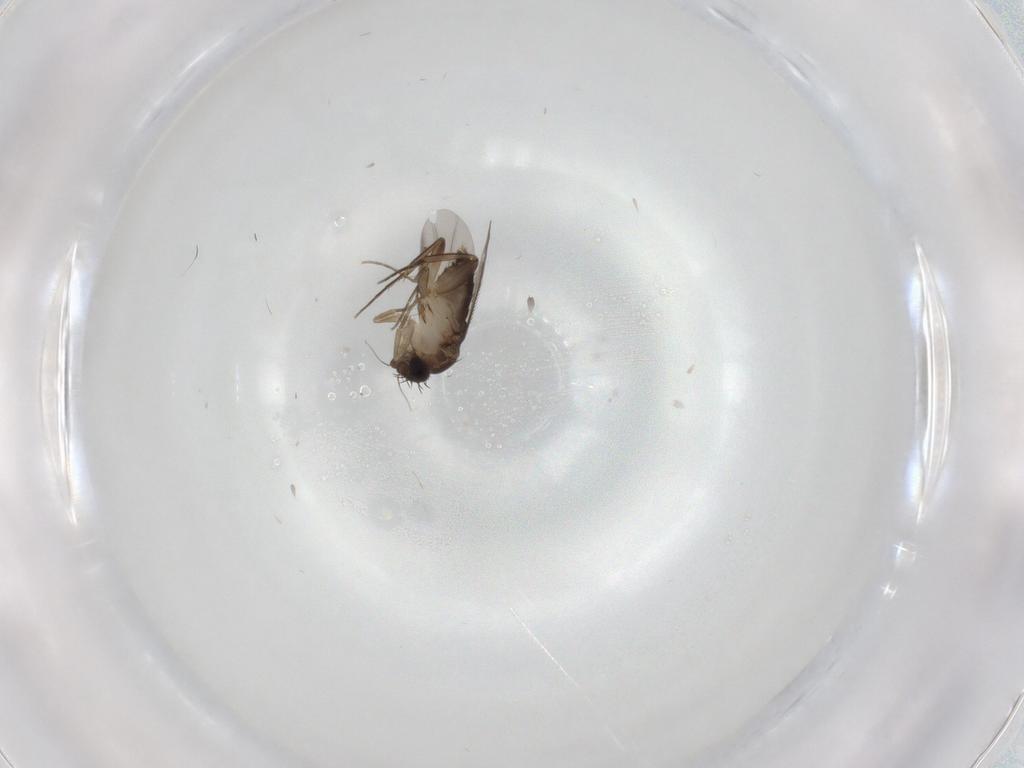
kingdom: Animalia
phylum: Arthropoda
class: Insecta
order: Diptera
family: Phoridae
